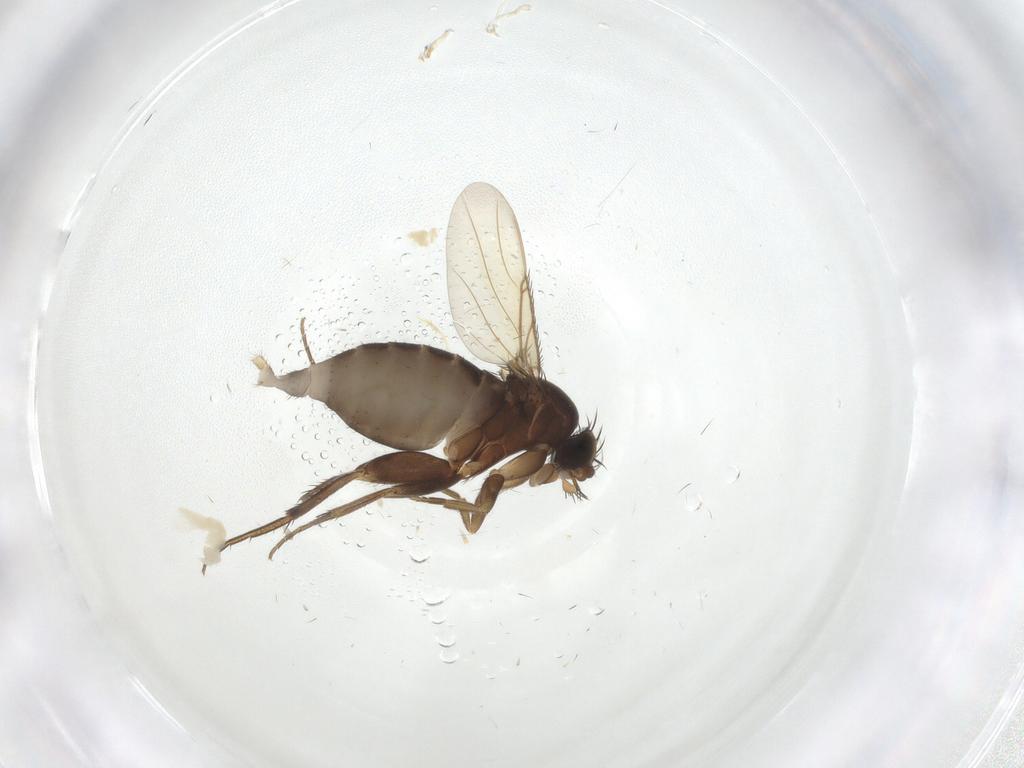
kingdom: Animalia
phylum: Arthropoda
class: Insecta
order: Diptera
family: Phoridae
